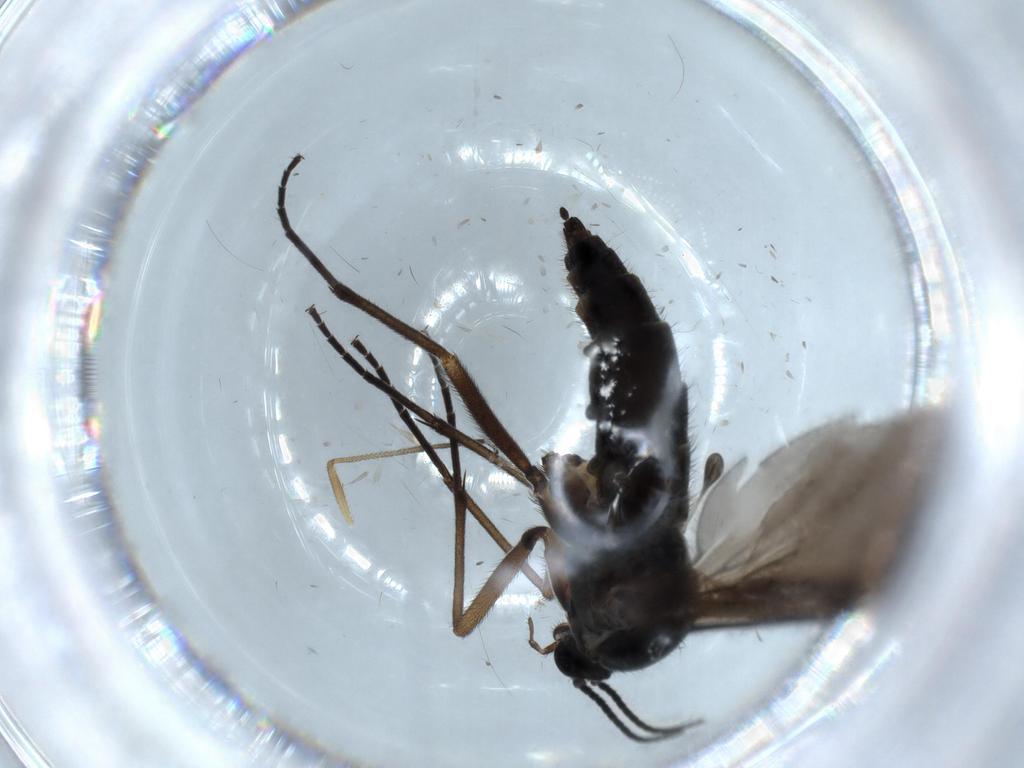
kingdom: Animalia
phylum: Arthropoda
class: Insecta
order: Diptera
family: Sciaridae
